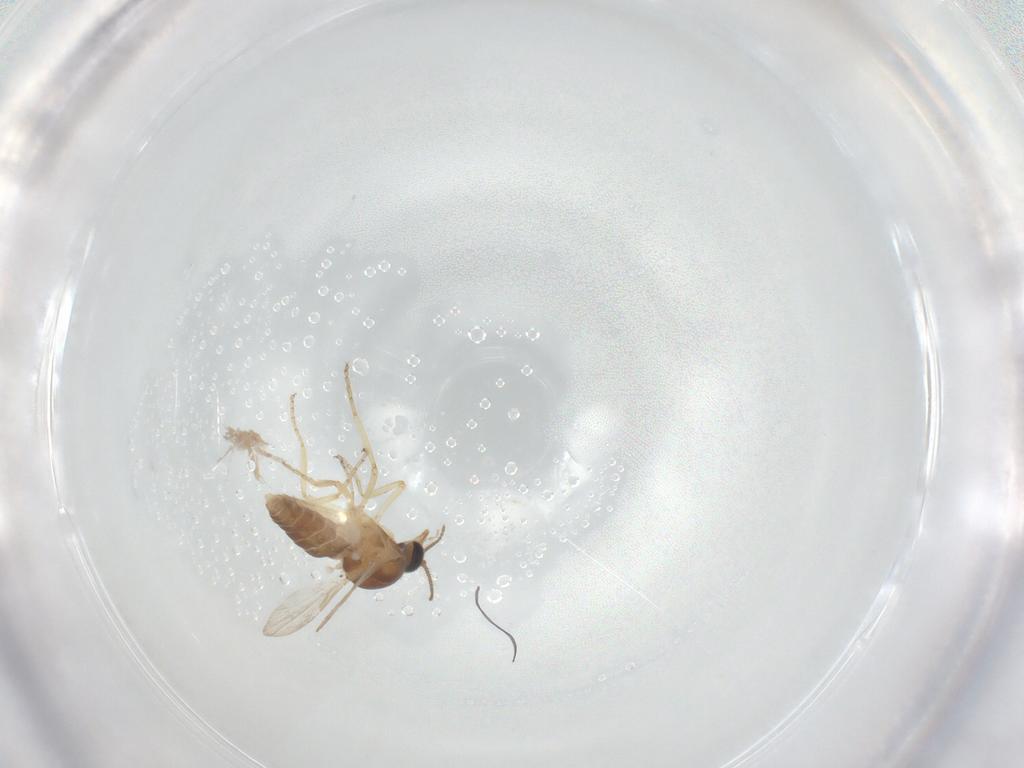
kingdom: Animalia
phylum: Arthropoda
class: Insecta
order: Diptera
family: Ceratopogonidae
